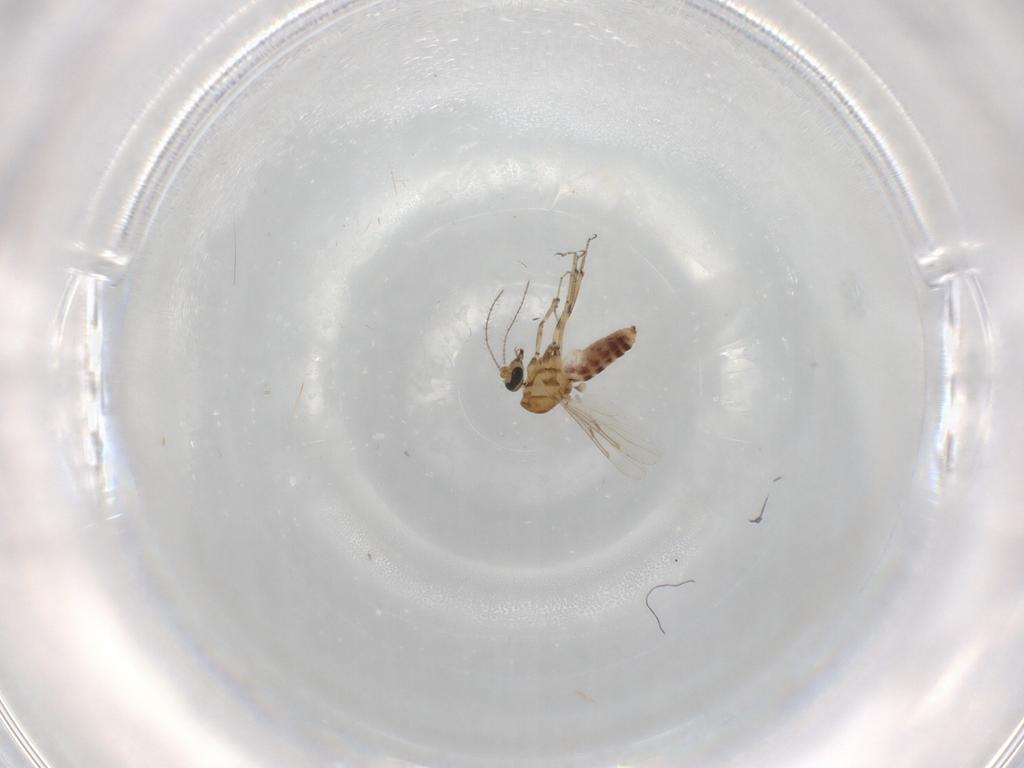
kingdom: Animalia
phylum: Arthropoda
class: Insecta
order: Diptera
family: Ceratopogonidae
